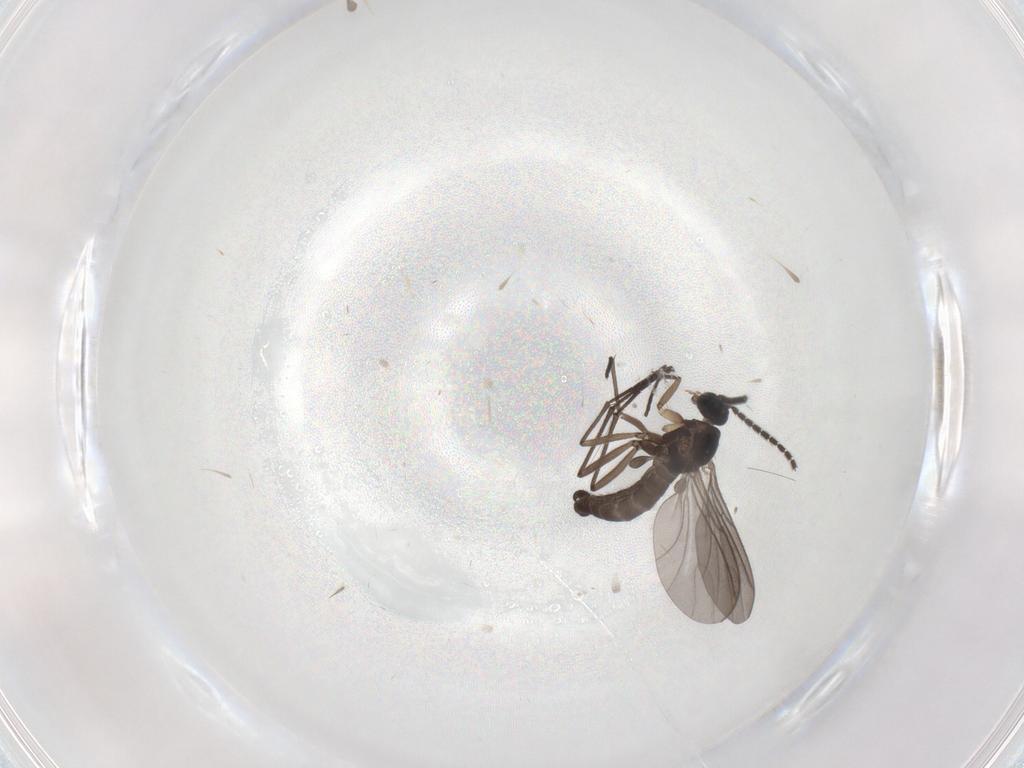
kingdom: Animalia
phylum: Arthropoda
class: Insecta
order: Diptera
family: Sciaridae
